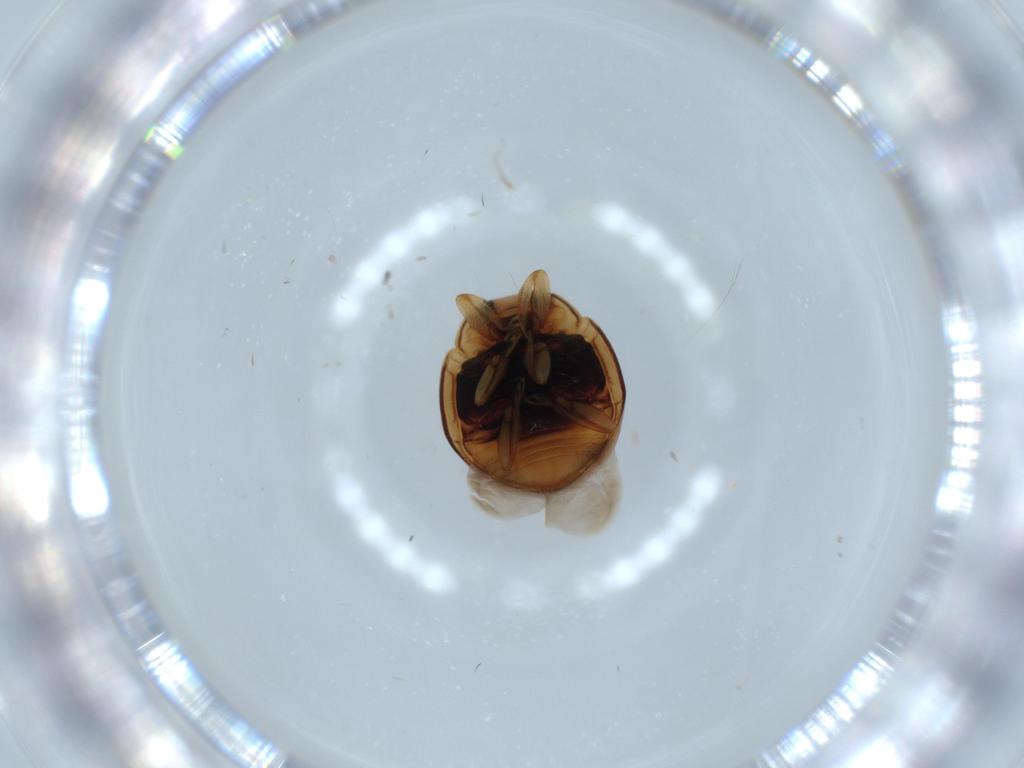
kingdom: Animalia
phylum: Arthropoda
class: Insecta
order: Coleoptera
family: Coccinellidae
